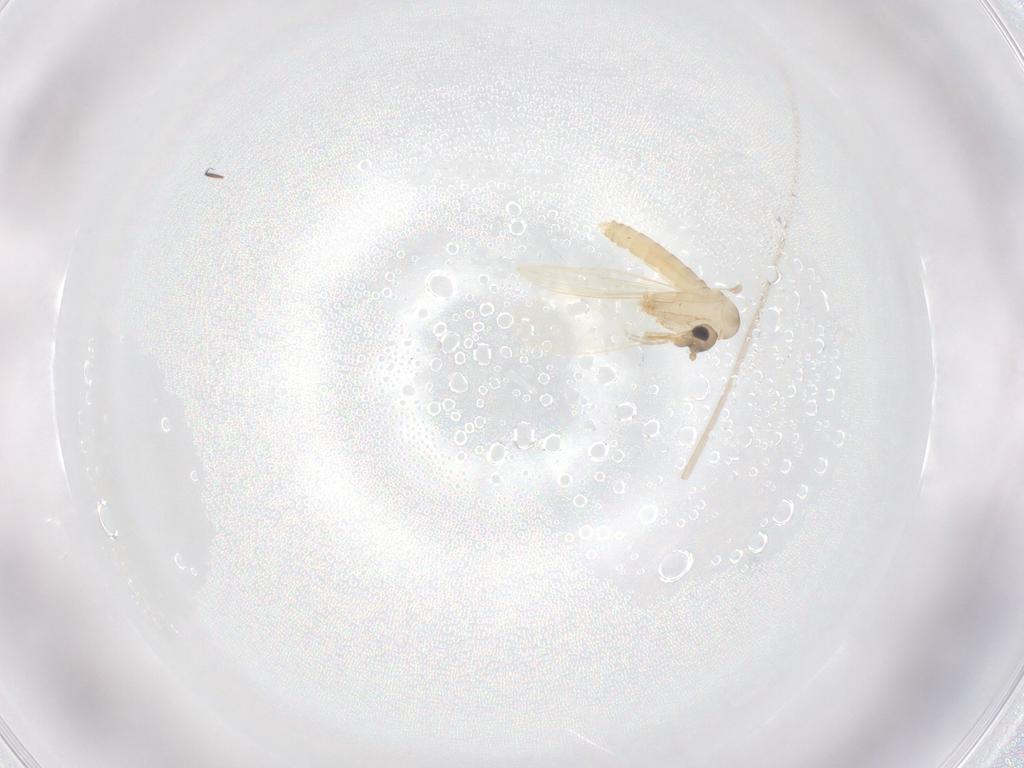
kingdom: Animalia
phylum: Arthropoda
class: Insecta
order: Diptera
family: Psychodidae
